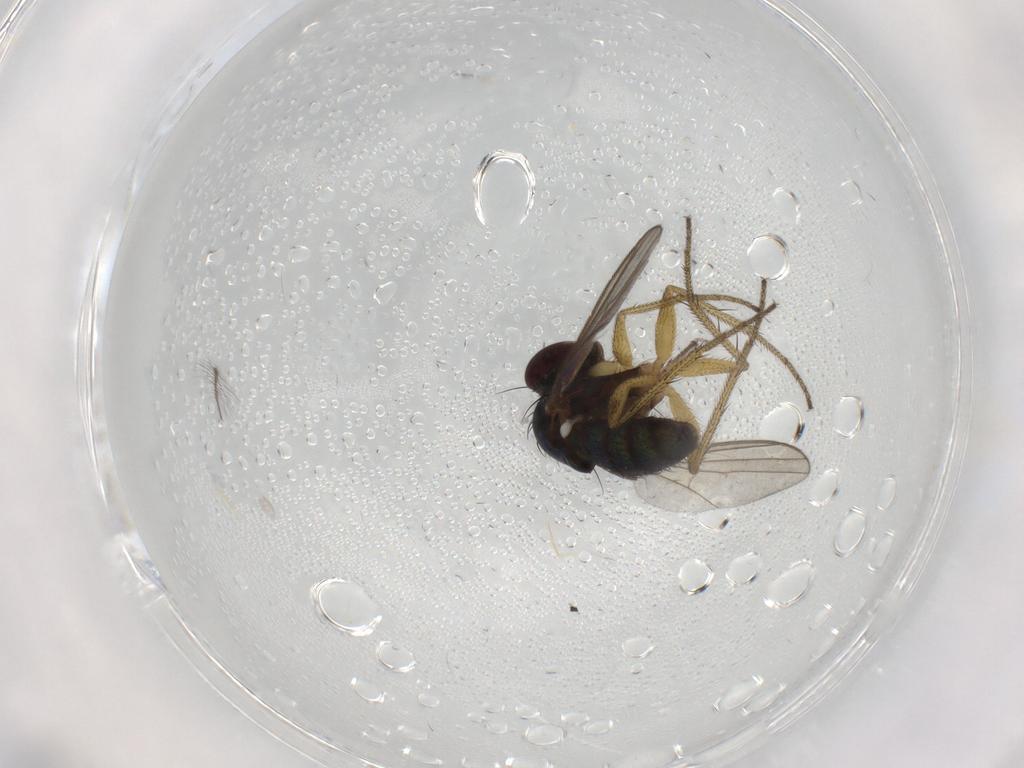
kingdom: Animalia
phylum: Arthropoda
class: Insecta
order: Diptera
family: Chironomidae
